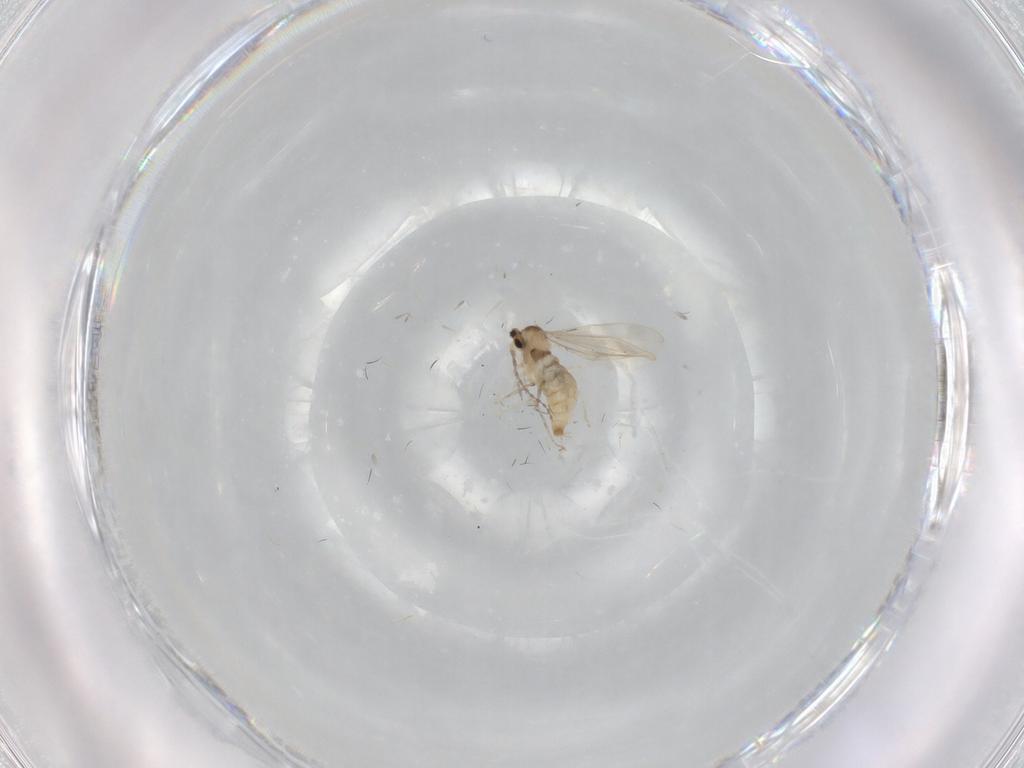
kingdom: Animalia
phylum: Arthropoda
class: Insecta
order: Diptera
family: Cecidomyiidae
